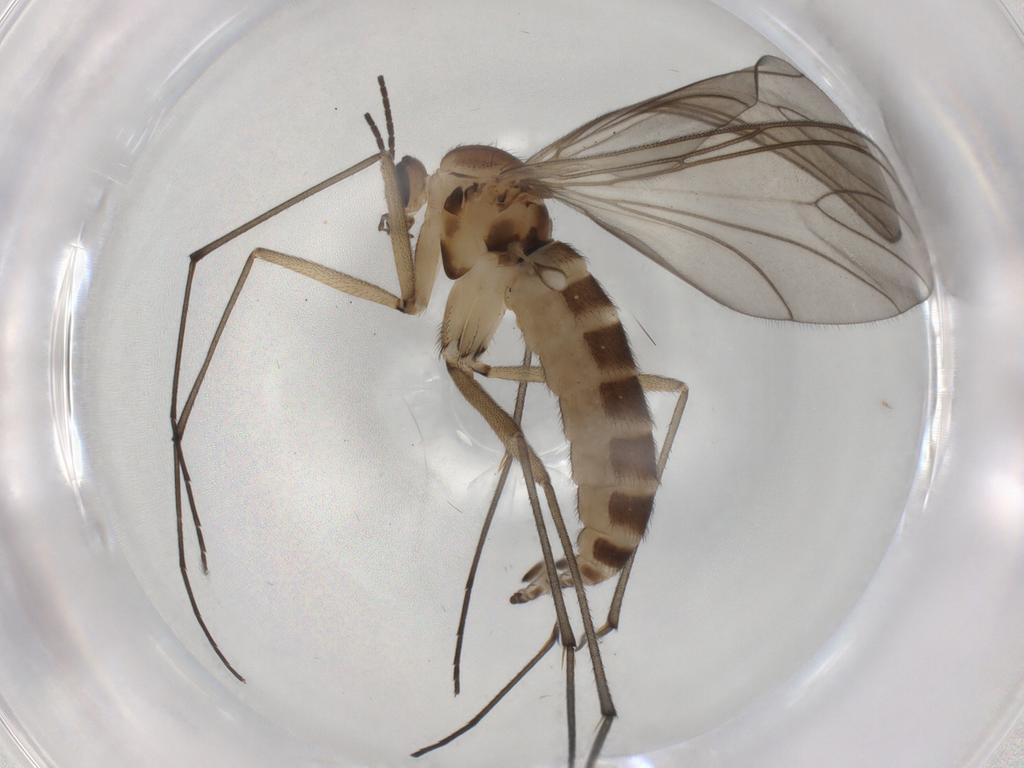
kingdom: Animalia
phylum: Arthropoda
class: Insecta
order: Diptera
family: Sciaridae
